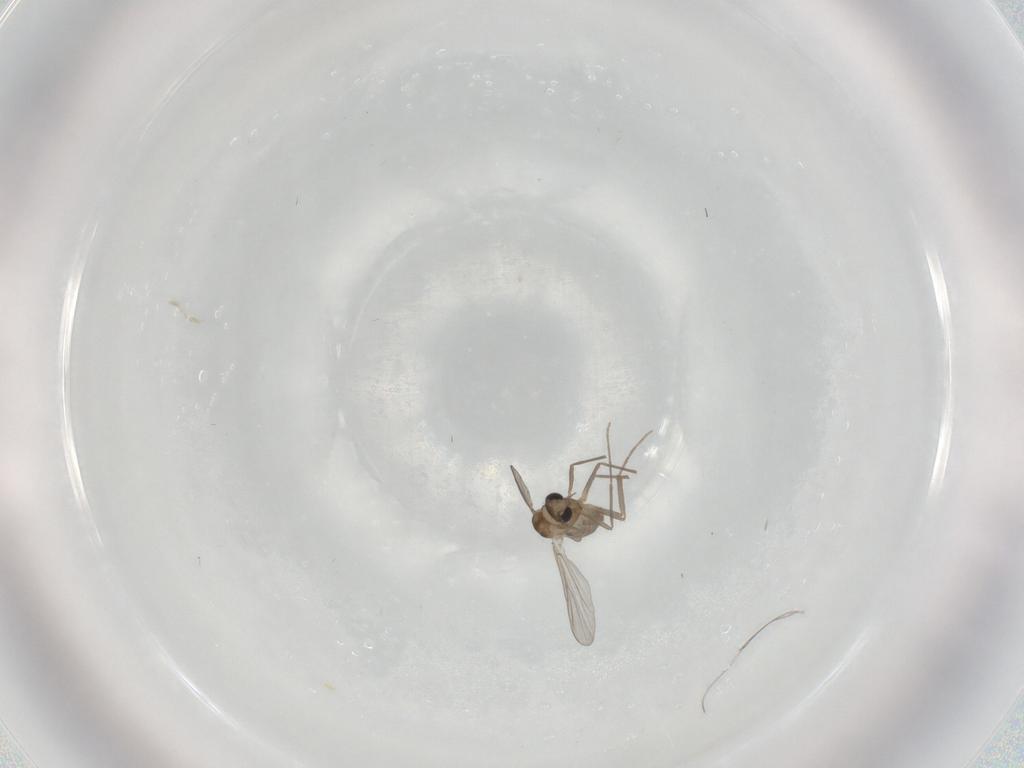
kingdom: Animalia
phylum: Arthropoda
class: Insecta
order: Diptera
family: Chironomidae
